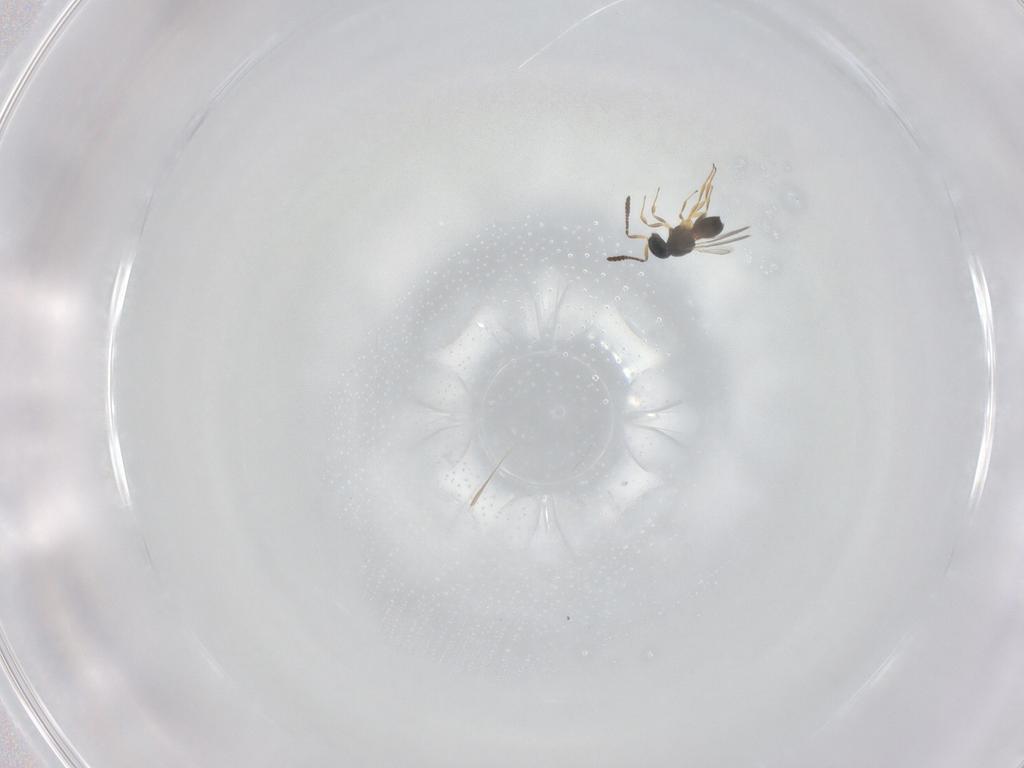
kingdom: Animalia
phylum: Arthropoda
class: Insecta
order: Hymenoptera
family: Scelionidae
